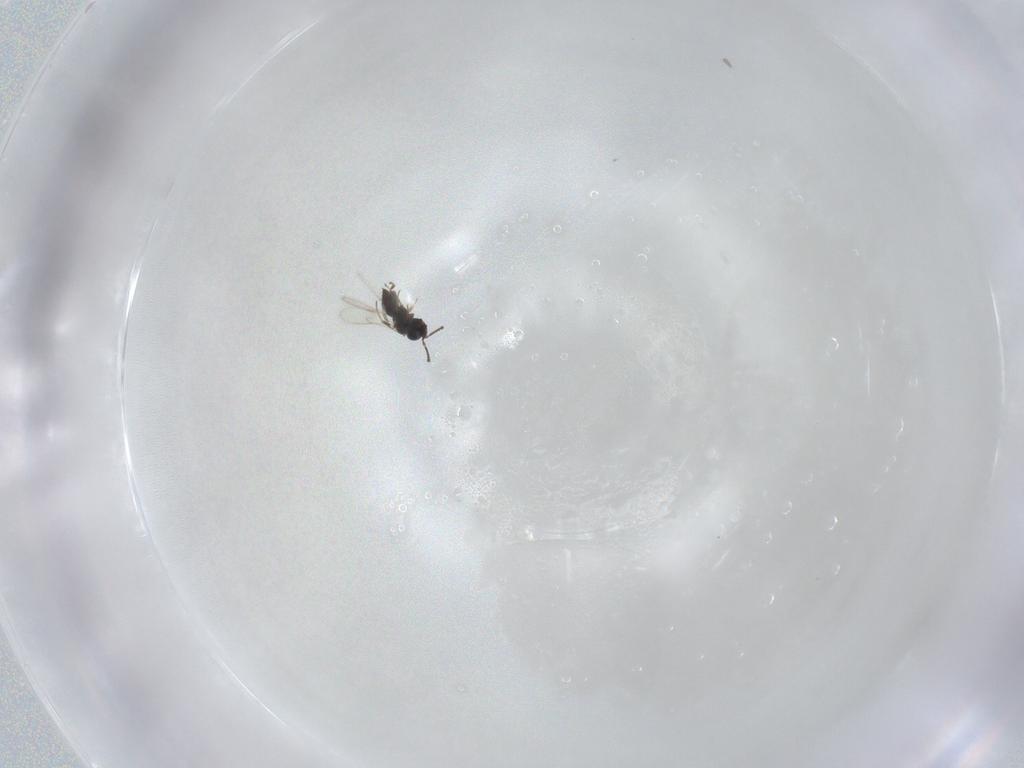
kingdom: Animalia
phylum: Arthropoda
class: Insecta
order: Hymenoptera
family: Scelionidae
